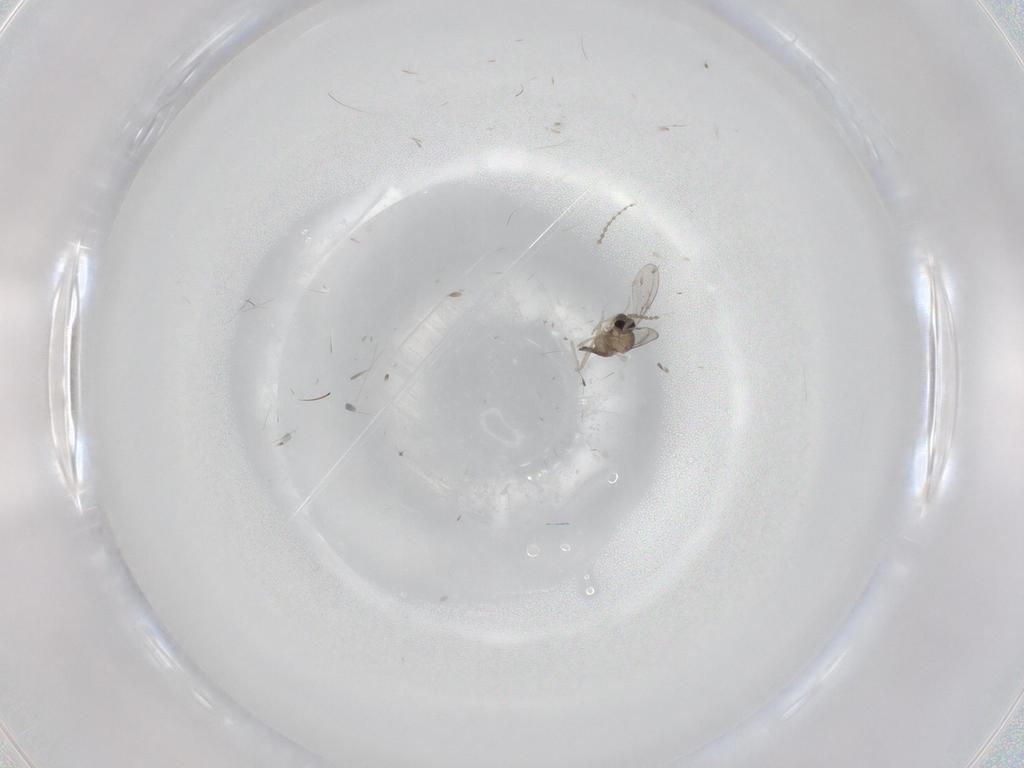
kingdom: Animalia
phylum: Arthropoda
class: Insecta
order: Diptera
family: Cecidomyiidae
